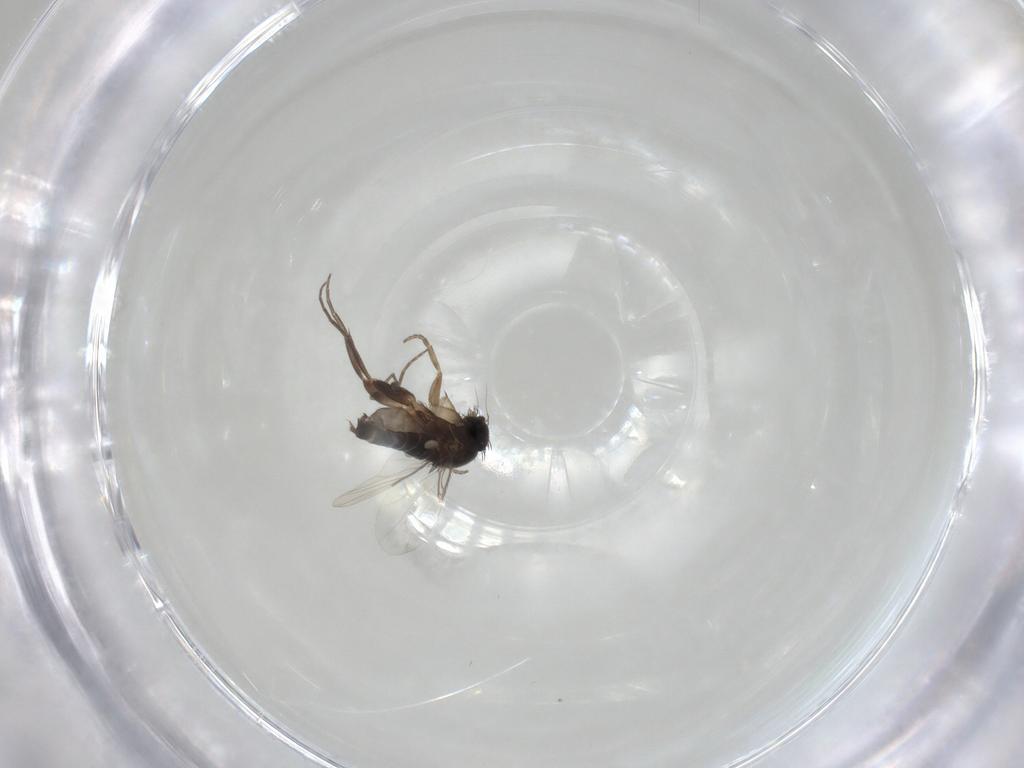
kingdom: Animalia
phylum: Arthropoda
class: Insecta
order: Diptera
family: Phoridae
